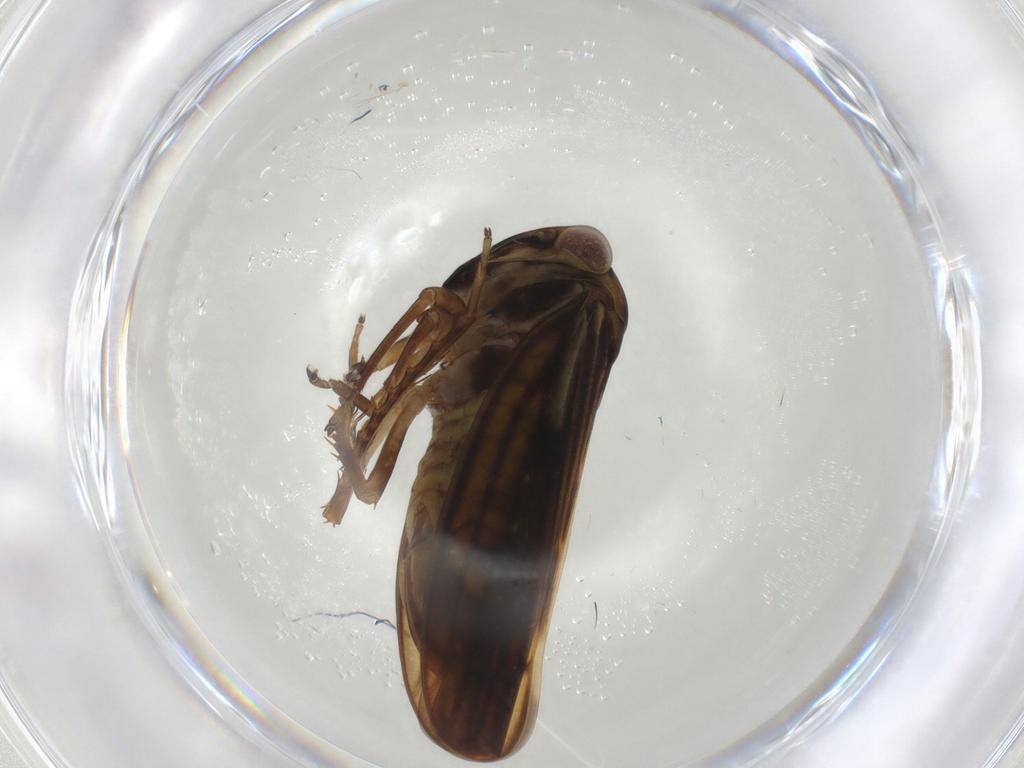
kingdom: Animalia
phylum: Arthropoda
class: Insecta
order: Hemiptera
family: Cicadellidae
